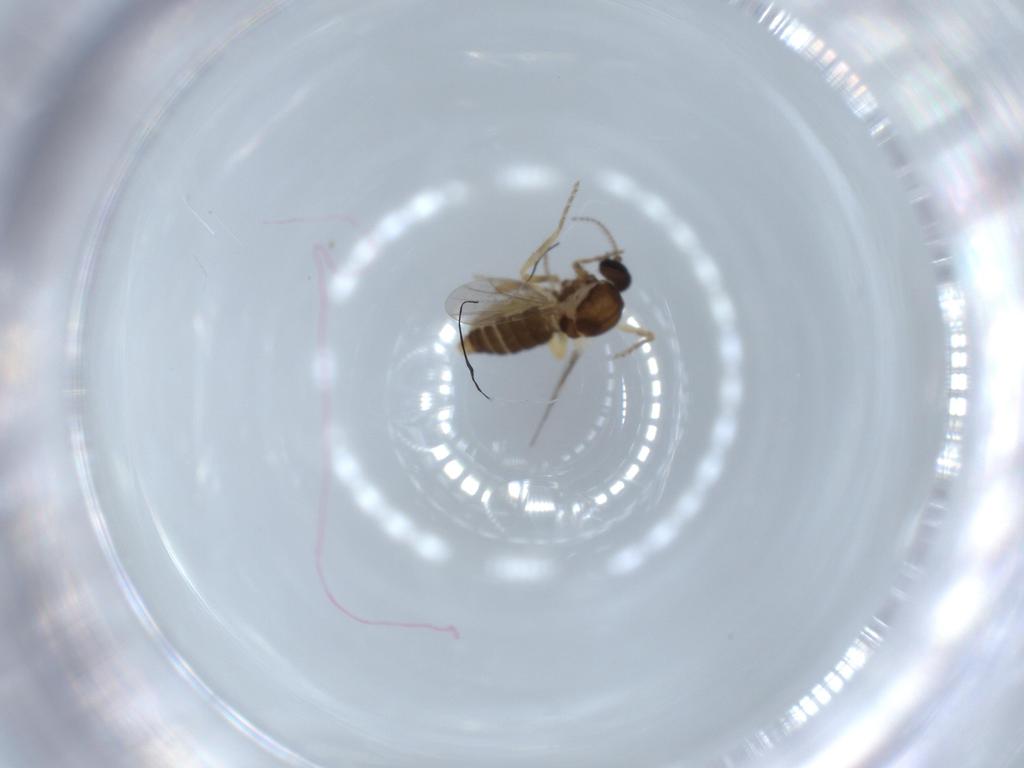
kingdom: Animalia
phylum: Arthropoda
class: Insecta
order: Diptera
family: Ceratopogonidae
